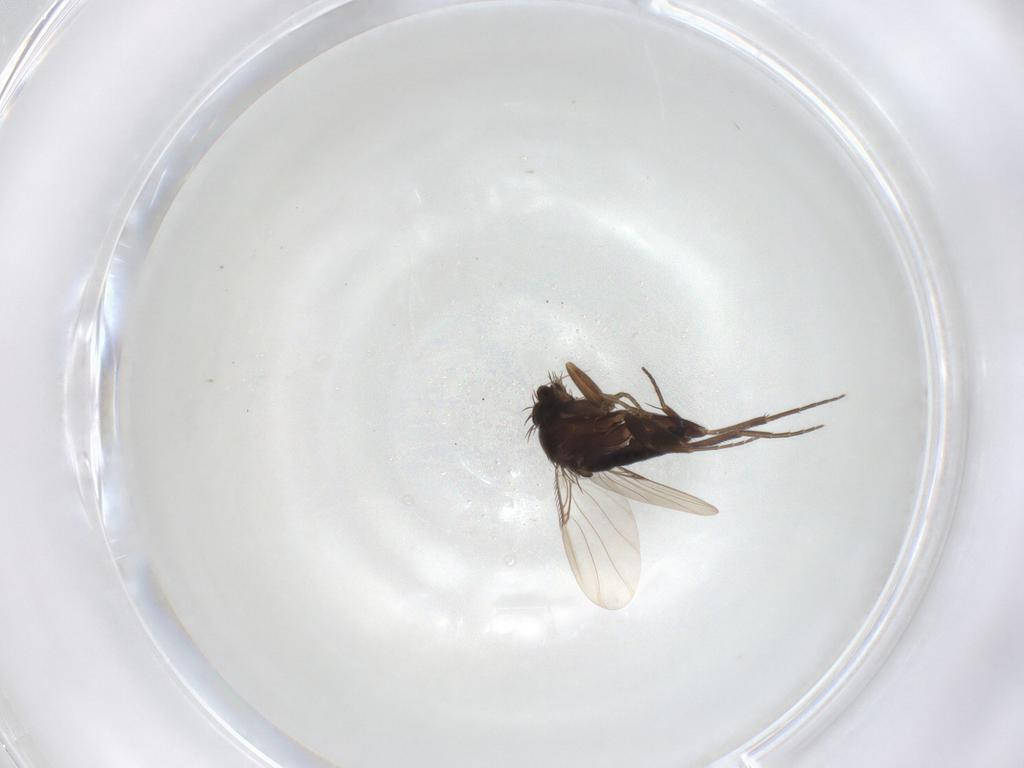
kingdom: Animalia
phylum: Arthropoda
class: Insecta
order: Diptera
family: Phoridae
